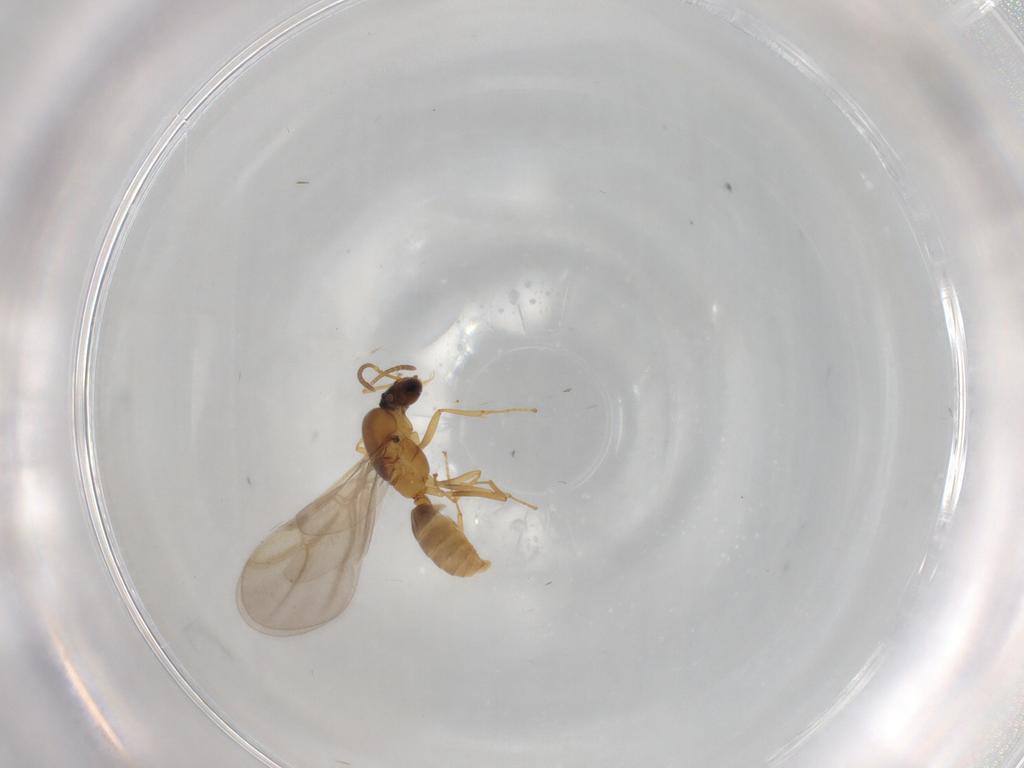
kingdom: Animalia
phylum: Arthropoda
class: Insecta
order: Hymenoptera
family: Formicidae
